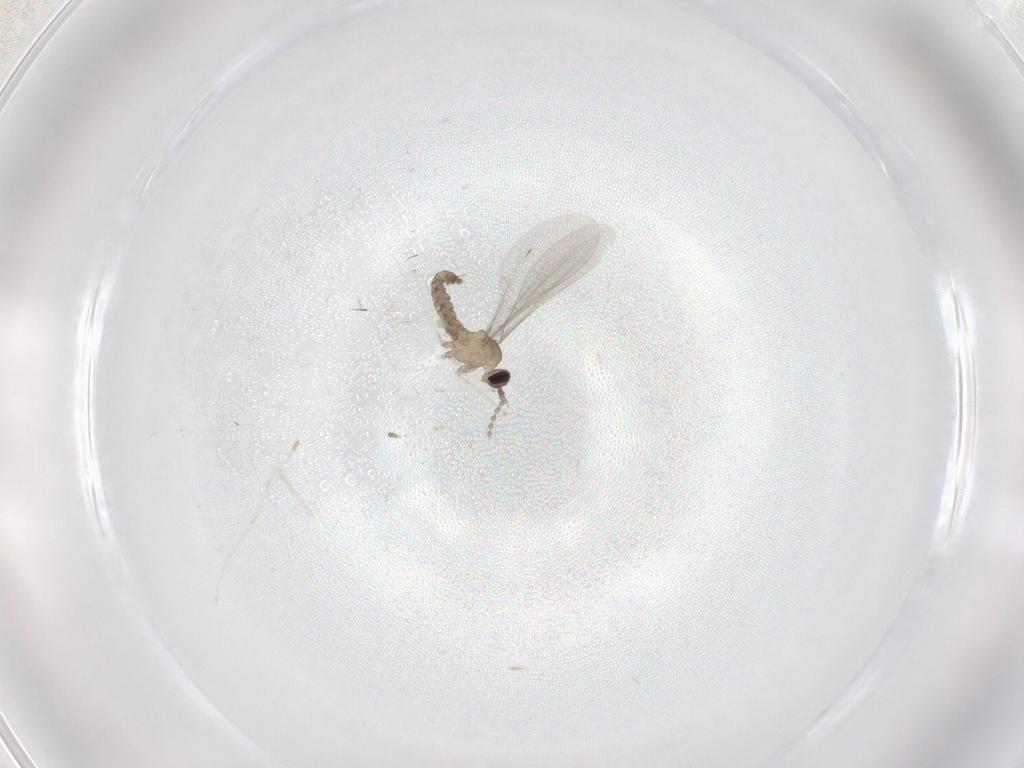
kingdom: Animalia
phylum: Arthropoda
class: Insecta
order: Diptera
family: Cecidomyiidae
